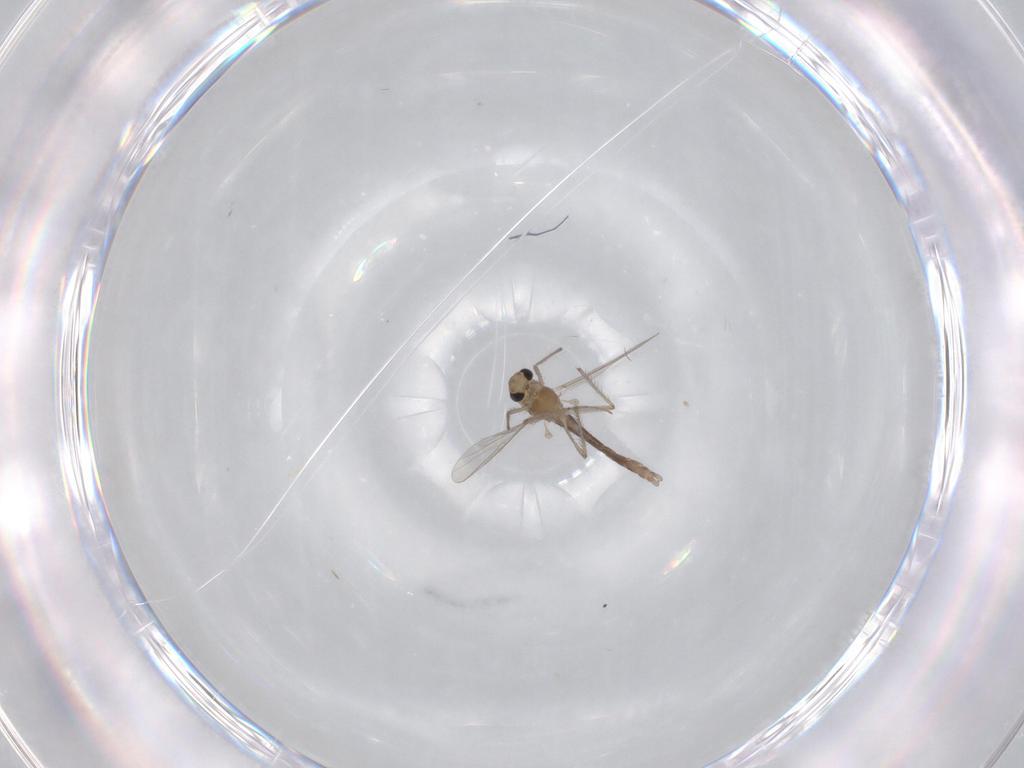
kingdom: Animalia
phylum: Arthropoda
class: Insecta
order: Diptera
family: Chironomidae
